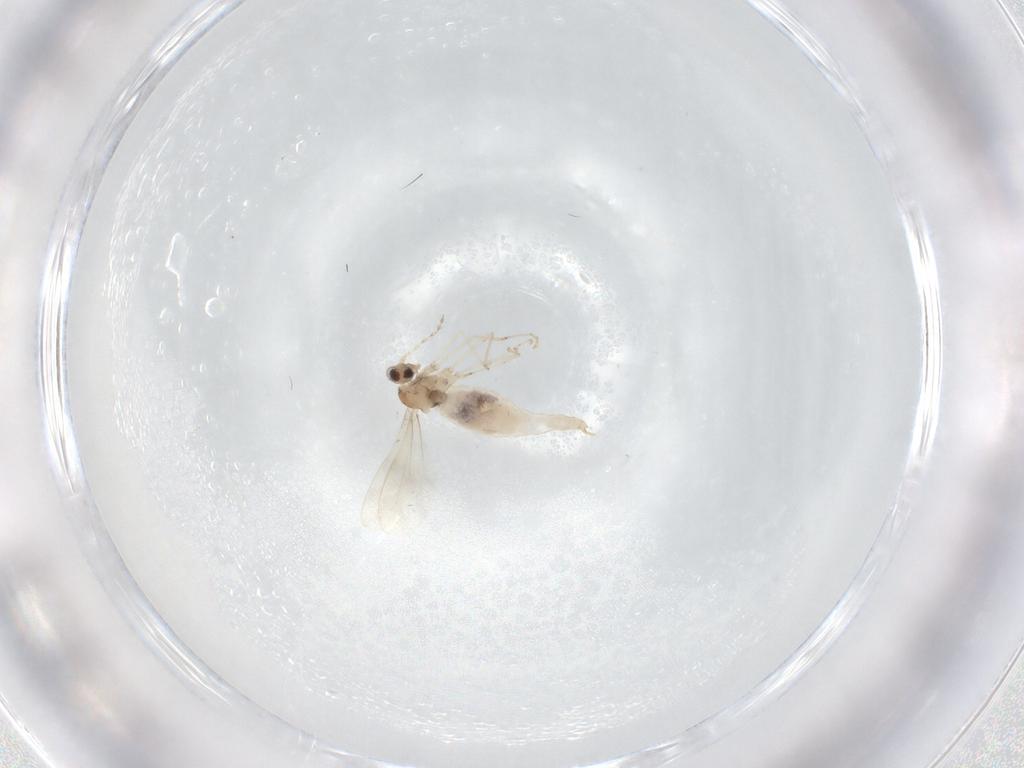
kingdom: Animalia
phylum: Arthropoda
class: Insecta
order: Diptera
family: Cecidomyiidae
